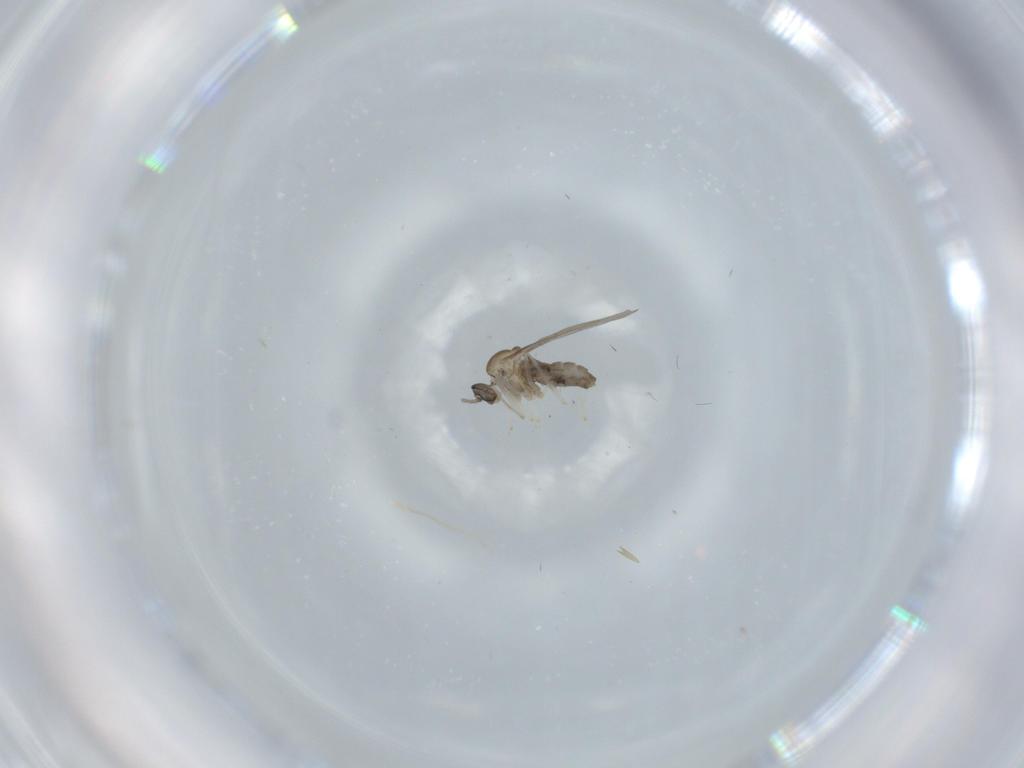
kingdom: Animalia
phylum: Arthropoda
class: Insecta
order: Diptera
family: Cecidomyiidae
